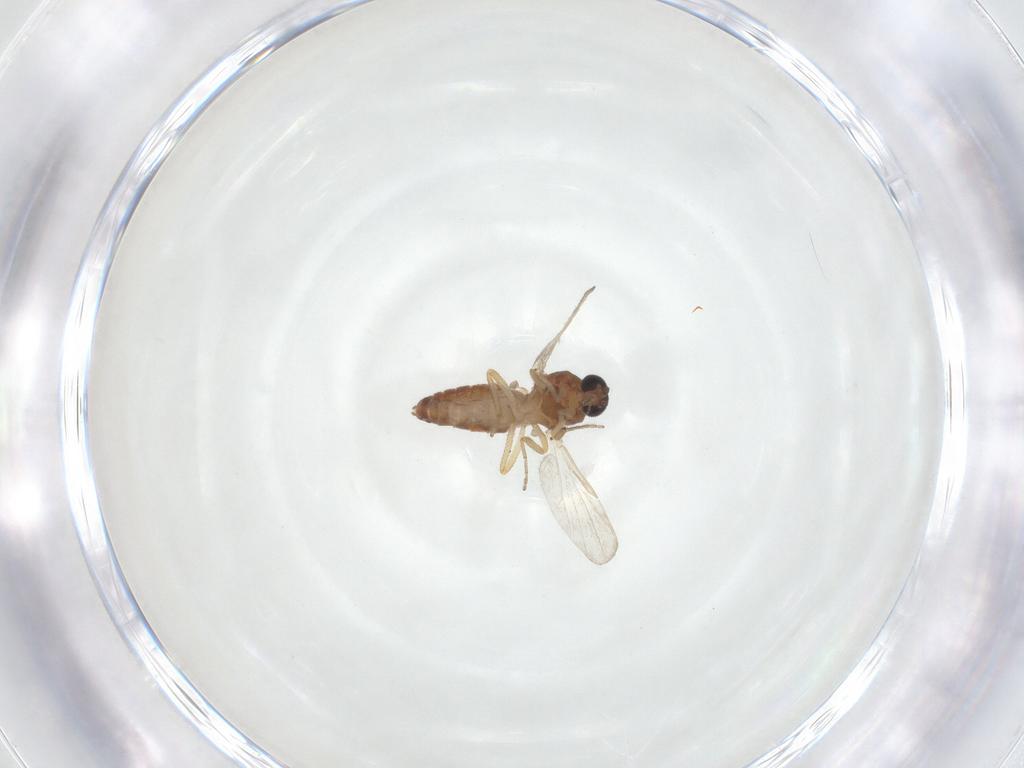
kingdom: Animalia
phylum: Arthropoda
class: Insecta
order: Diptera
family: Ceratopogonidae
